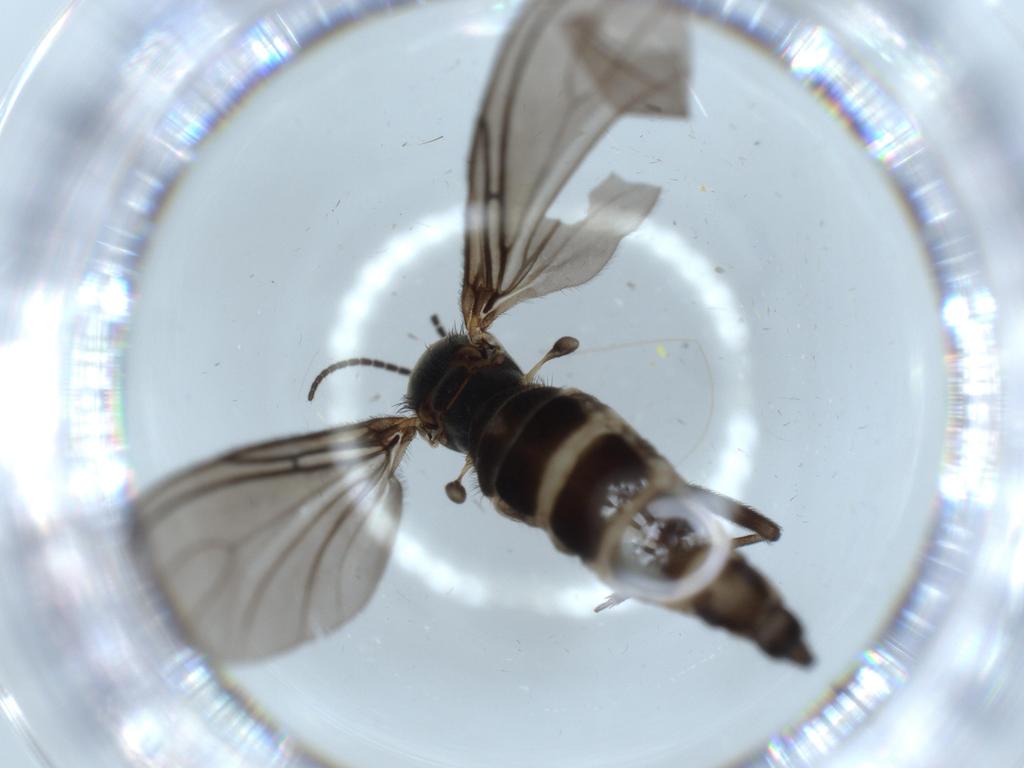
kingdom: Animalia
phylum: Arthropoda
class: Insecta
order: Diptera
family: Sciaridae
